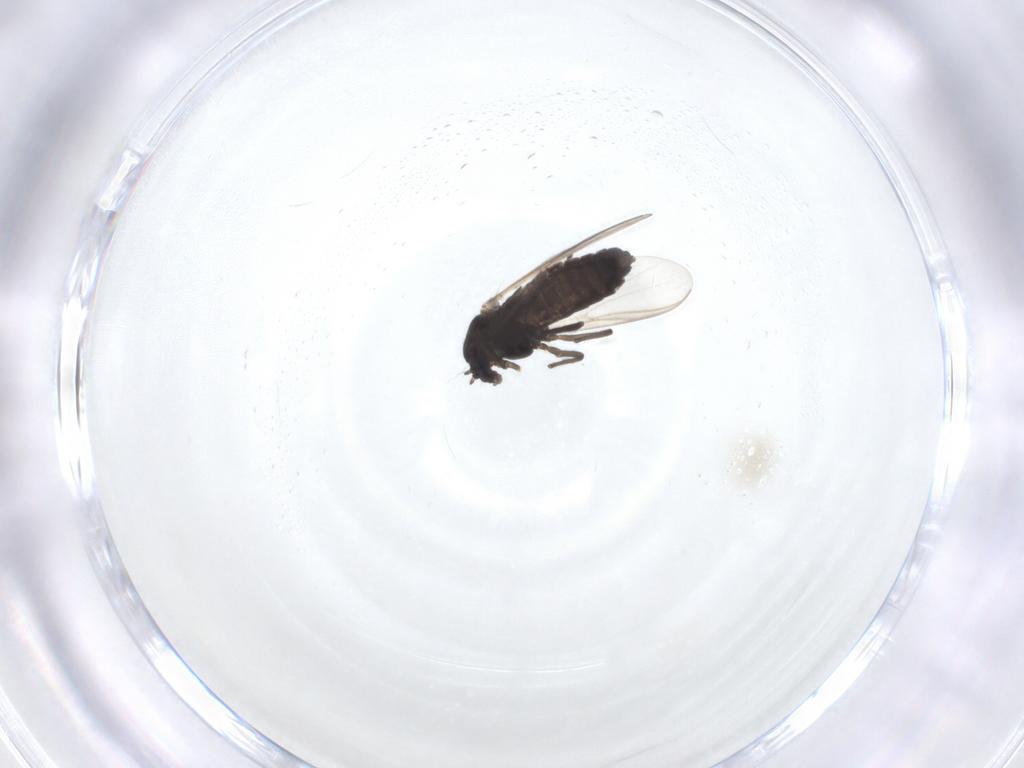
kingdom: Animalia
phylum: Arthropoda
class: Insecta
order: Diptera
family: Chironomidae
